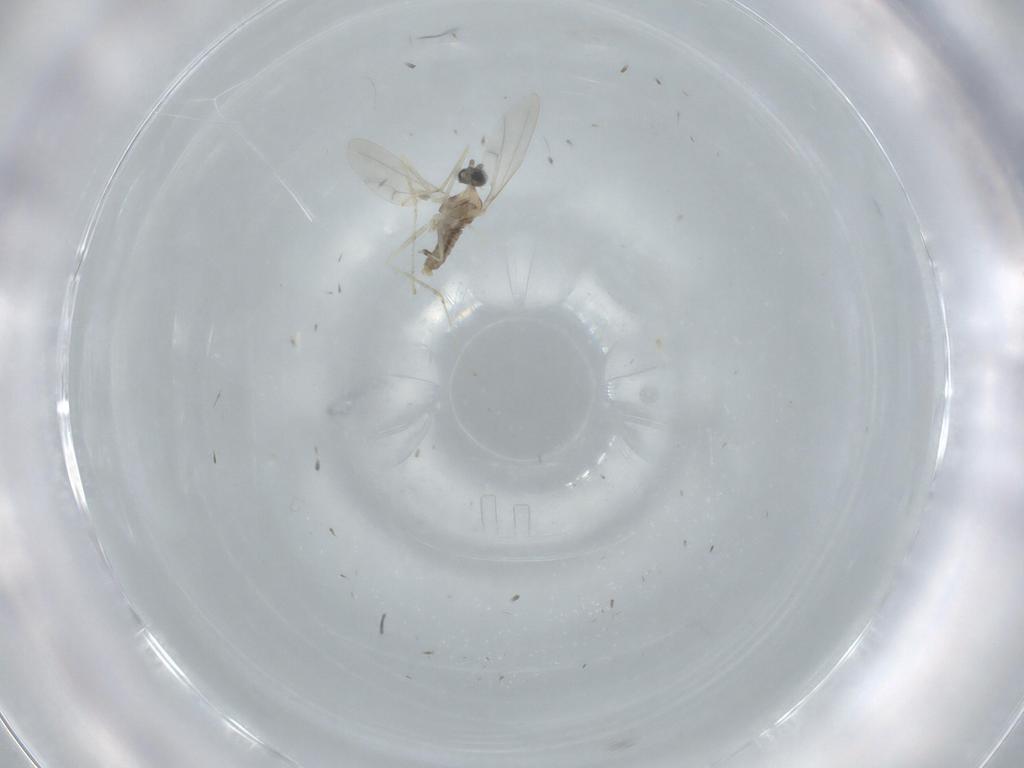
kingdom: Animalia
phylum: Arthropoda
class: Insecta
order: Diptera
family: Cecidomyiidae
